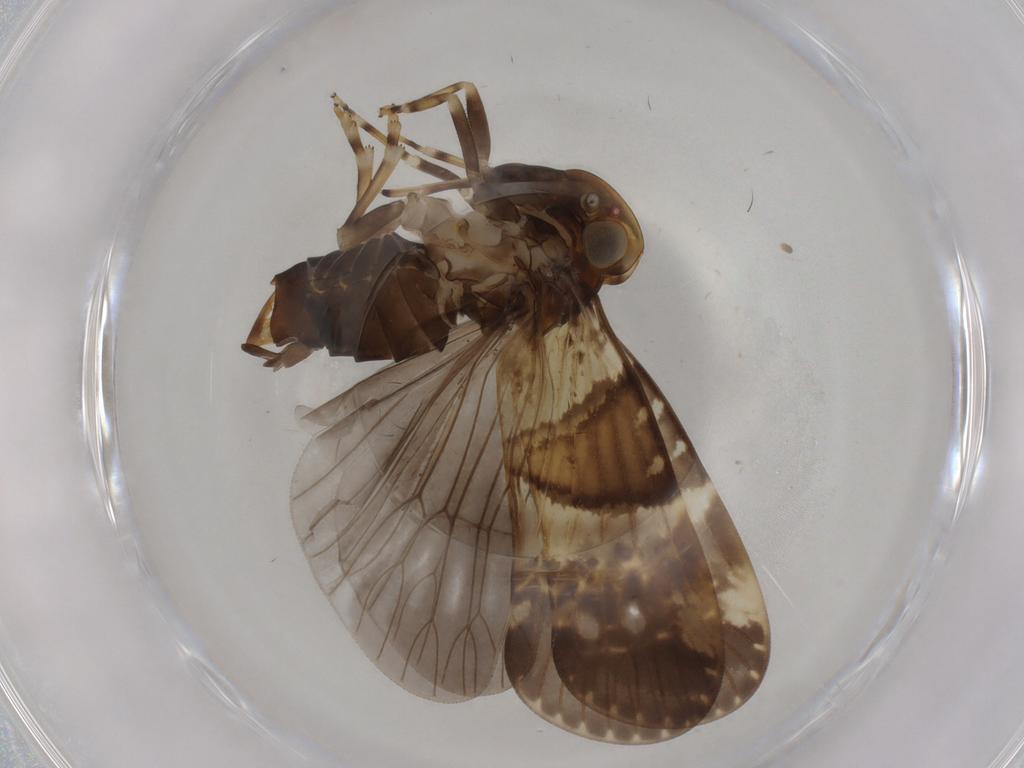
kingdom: Animalia
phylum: Arthropoda
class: Insecta
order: Hemiptera
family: Cixiidae
